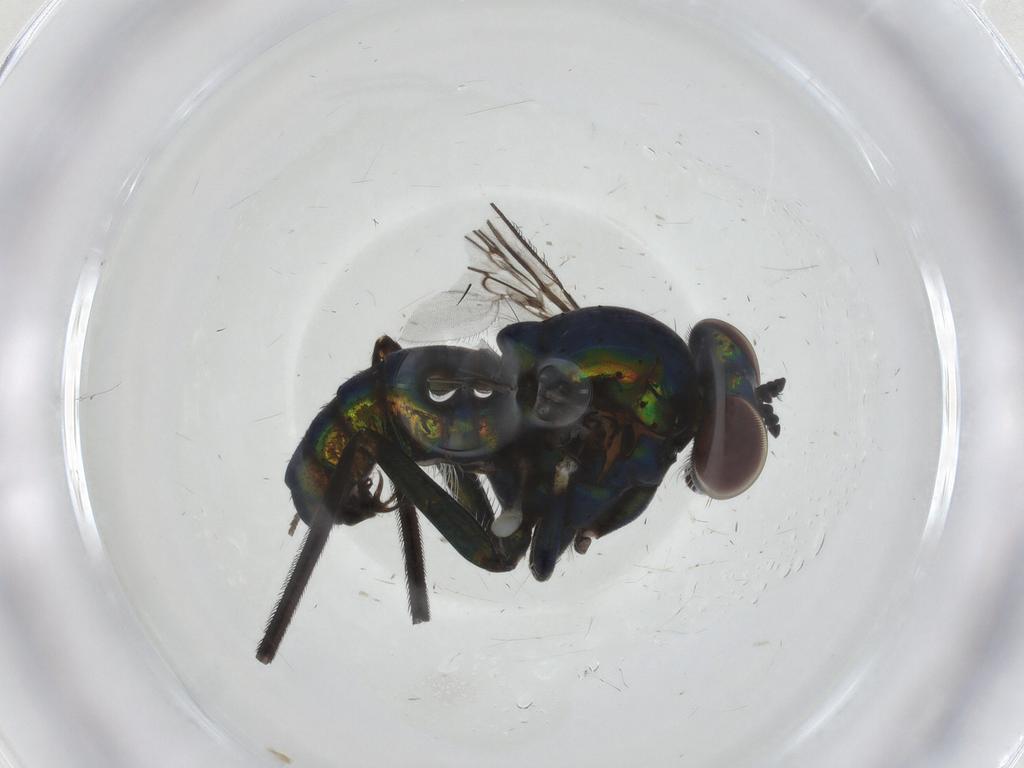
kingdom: Animalia
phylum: Arthropoda
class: Insecta
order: Diptera
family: Dolichopodidae
